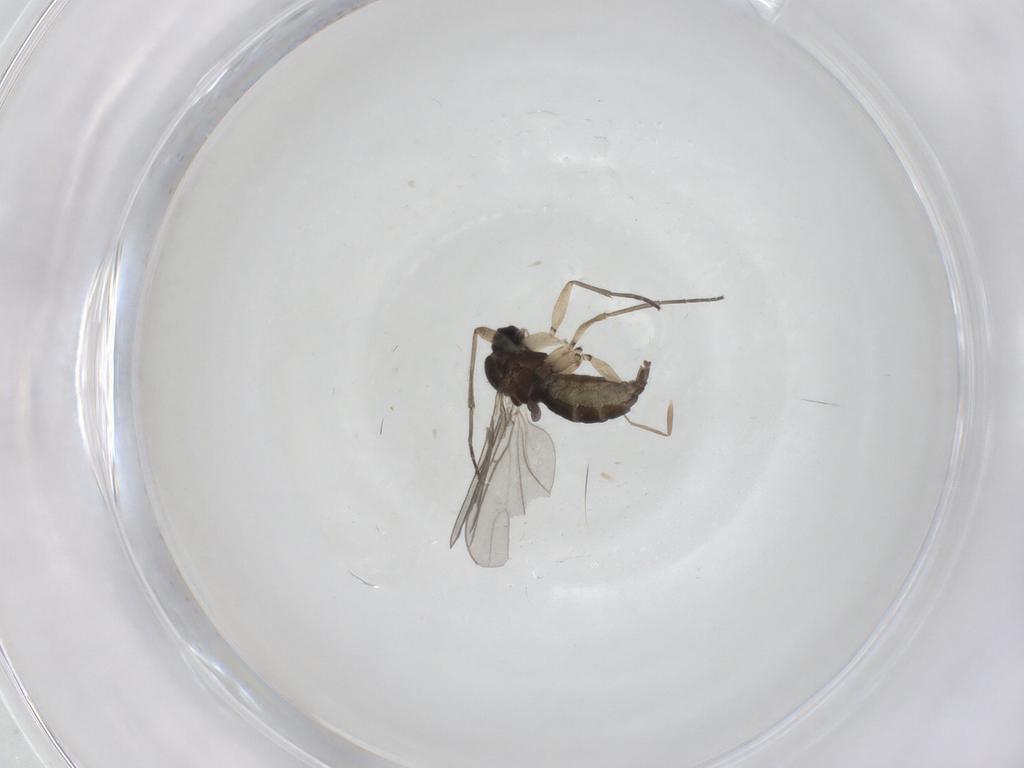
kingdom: Animalia
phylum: Arthropoda
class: Insecta
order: Diptera
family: Sciaridae
